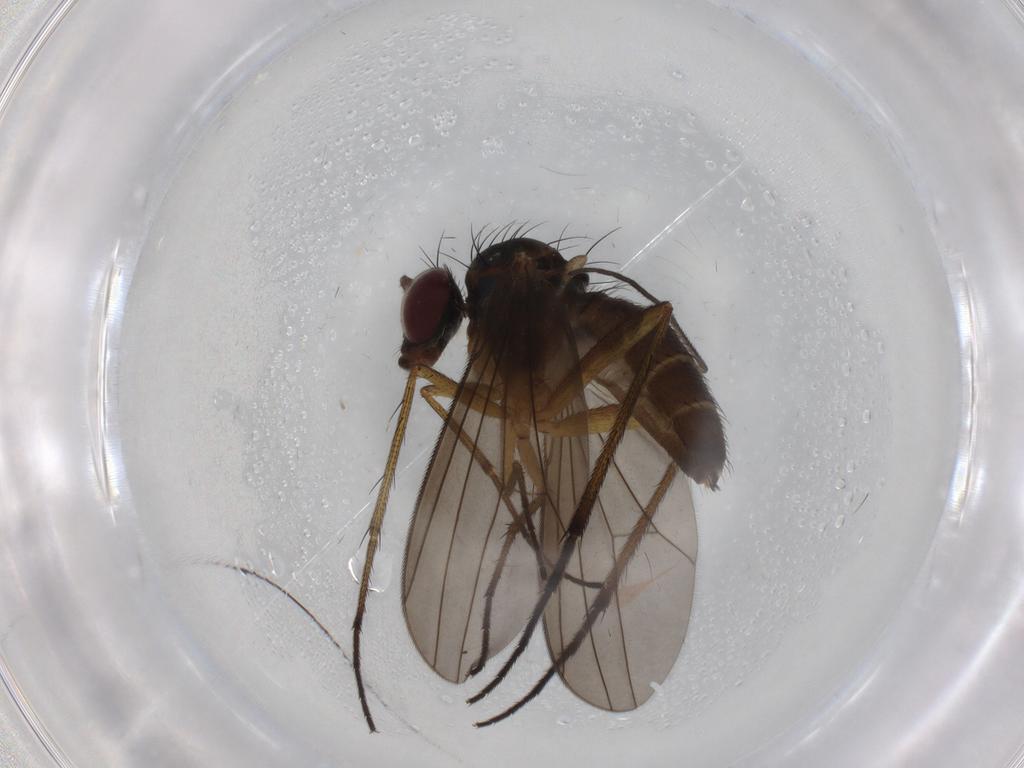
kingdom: Animalia
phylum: Arthropoda
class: Insecta
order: Diptera
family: Dolichopodidae
